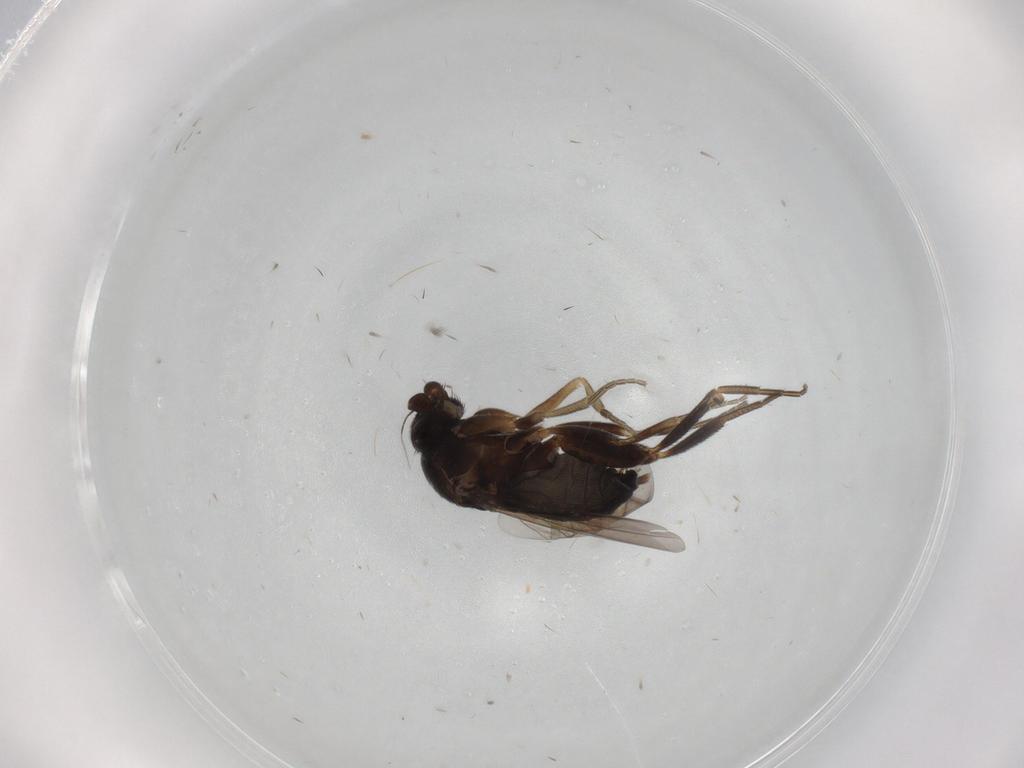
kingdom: Animalia
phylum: Arthropoda
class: Insecta
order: Diptera
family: Phoridae
